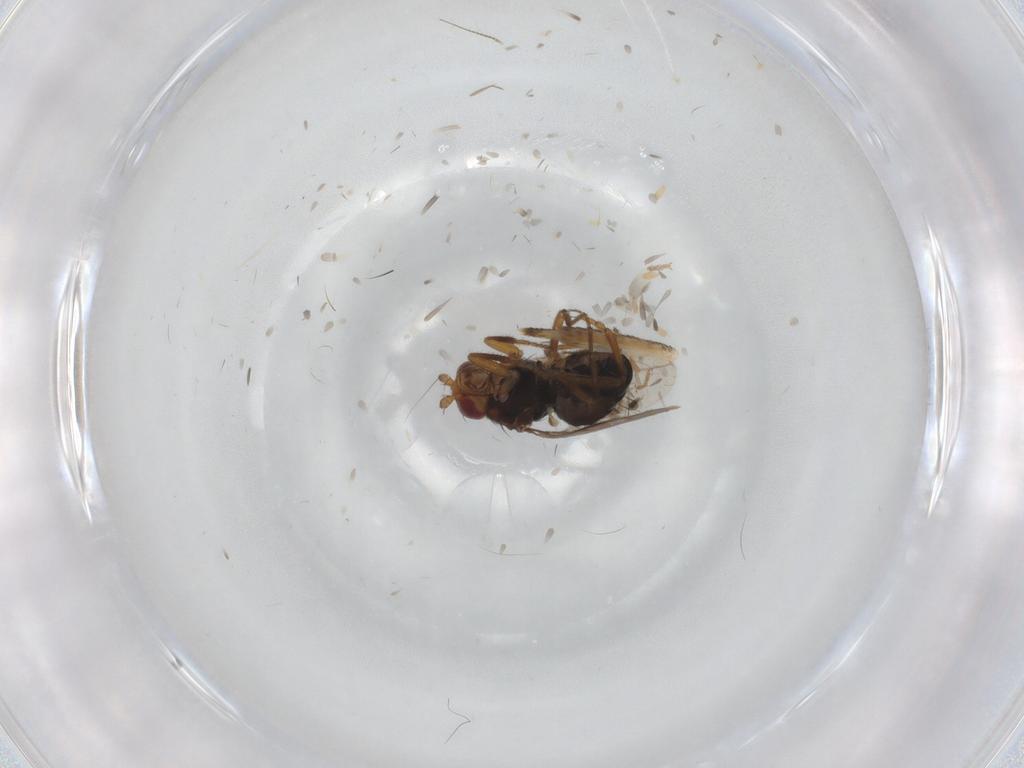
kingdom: Animalia
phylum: Arthropoda
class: Insecta
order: Diptera
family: Sphaeroceridae
